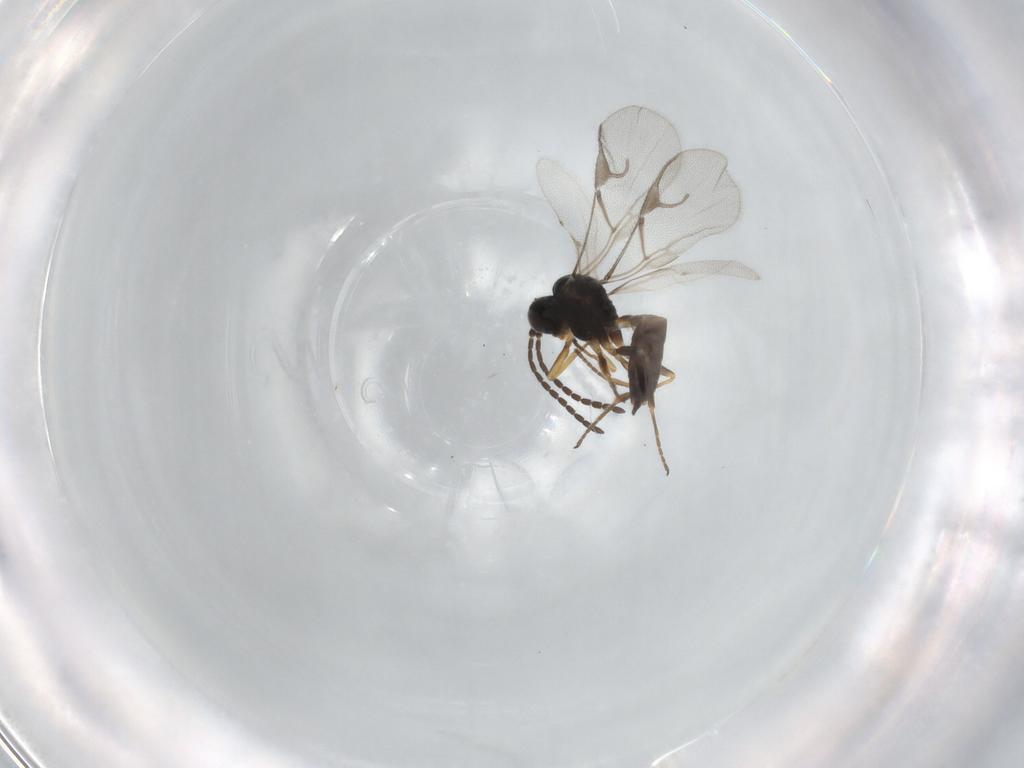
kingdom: Animalia
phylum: Arthropoda
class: Insecta
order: Hymenoptera
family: Braconidae
